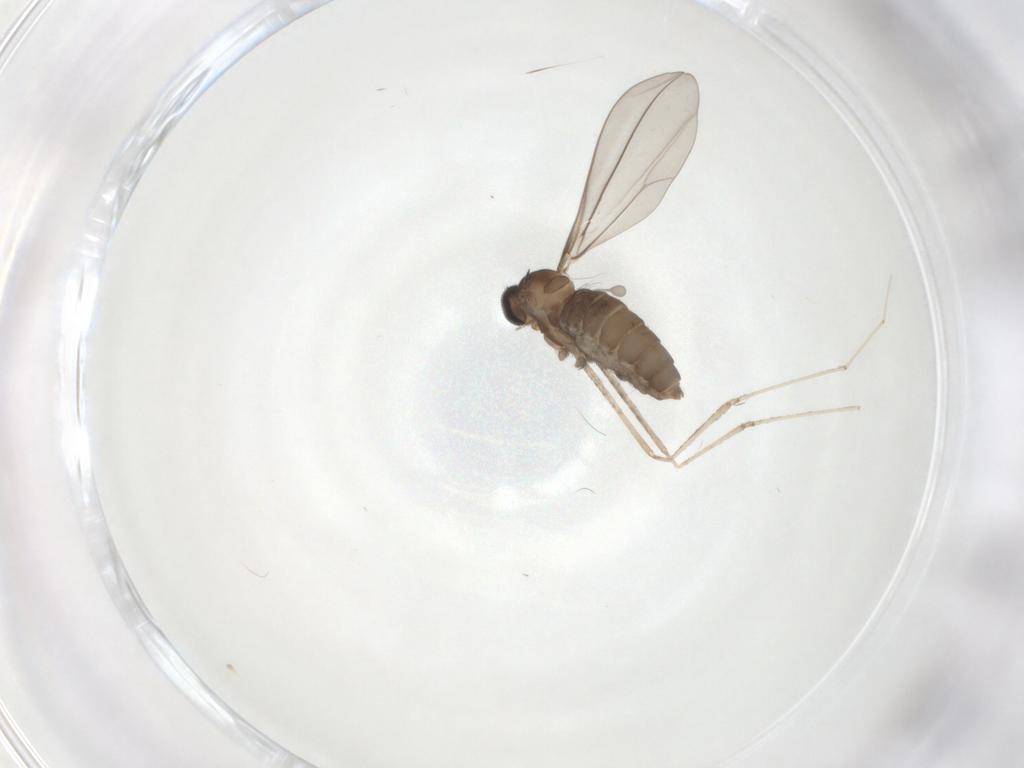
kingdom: Animalia
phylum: Arthropoda
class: Insecta
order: Diptera
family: Cecidomyiidae
